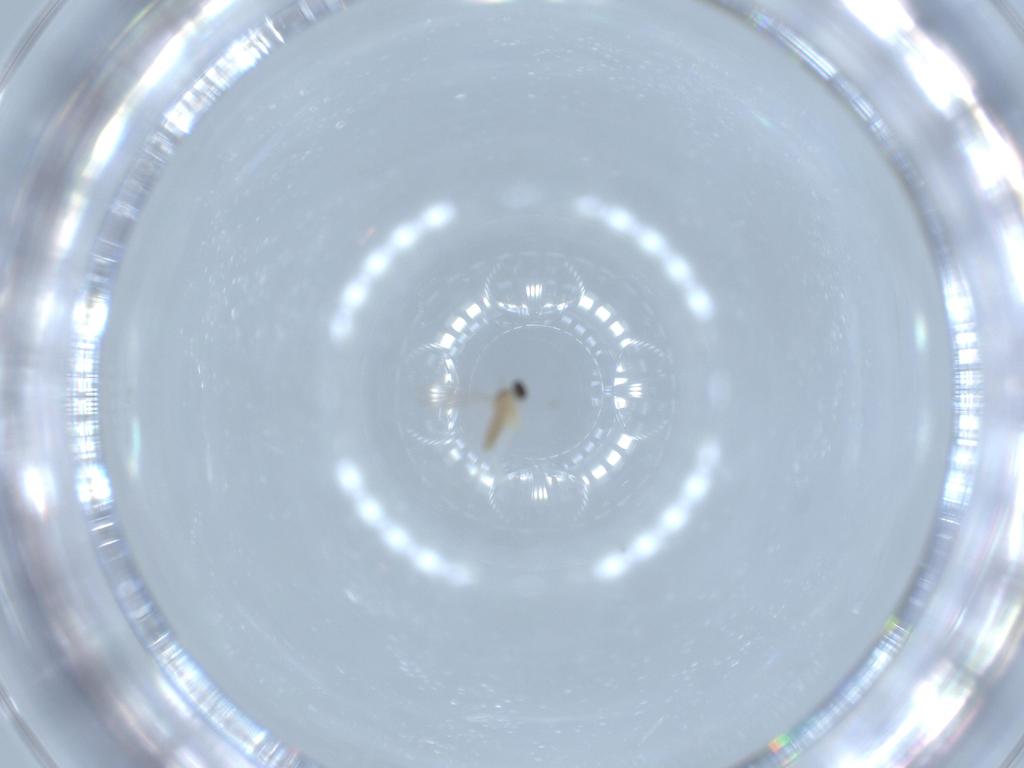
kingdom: Animalia
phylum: Arthropoda
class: Insecta
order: Diptera
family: Cecidomyiidae
